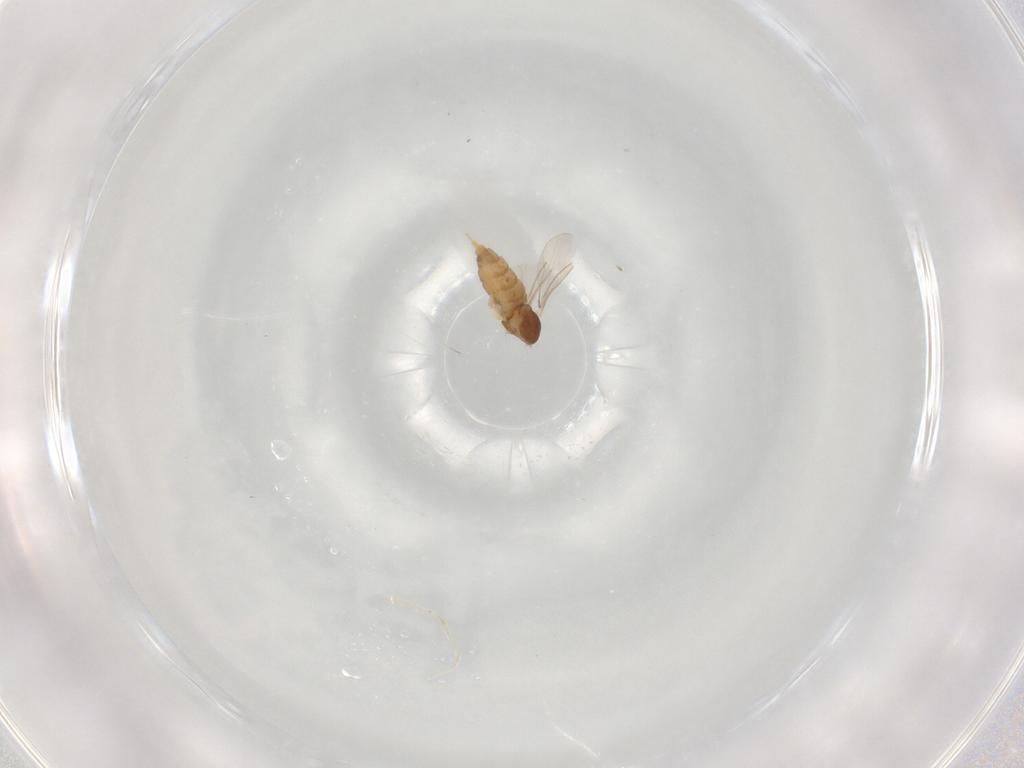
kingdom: Animalia
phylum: Arthropoda
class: Insecta
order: Diptera
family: Cecidomyiidae
